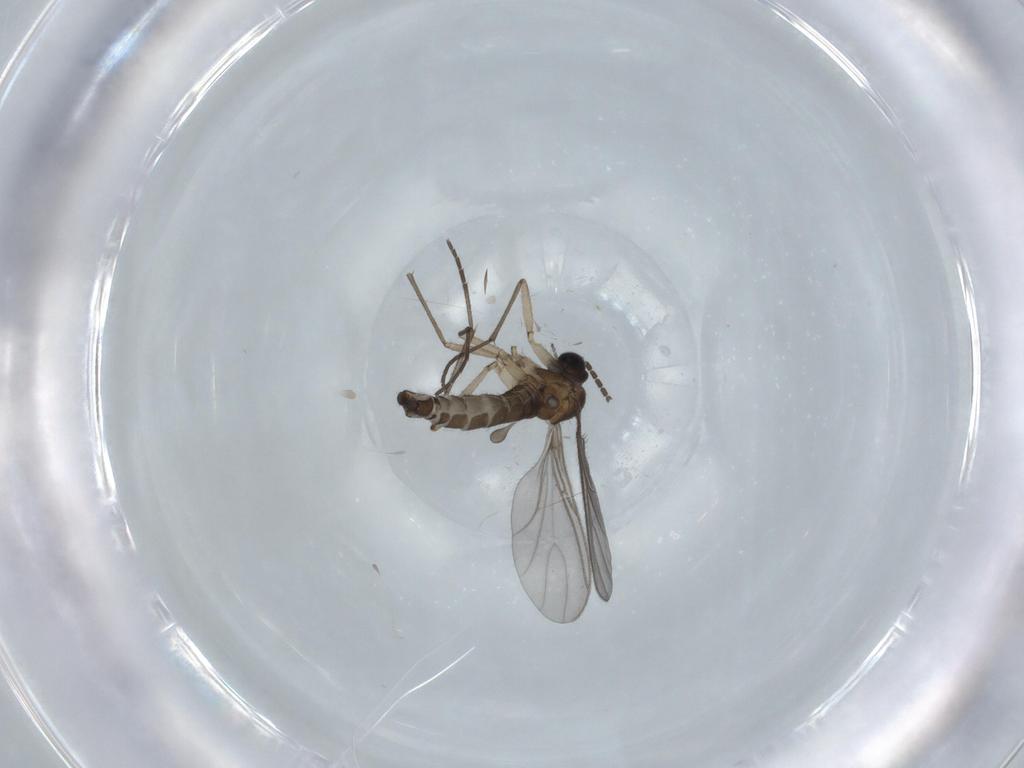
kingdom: Animalia
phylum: Arthropoda
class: Insecta
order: Diptera
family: Sciaridae
